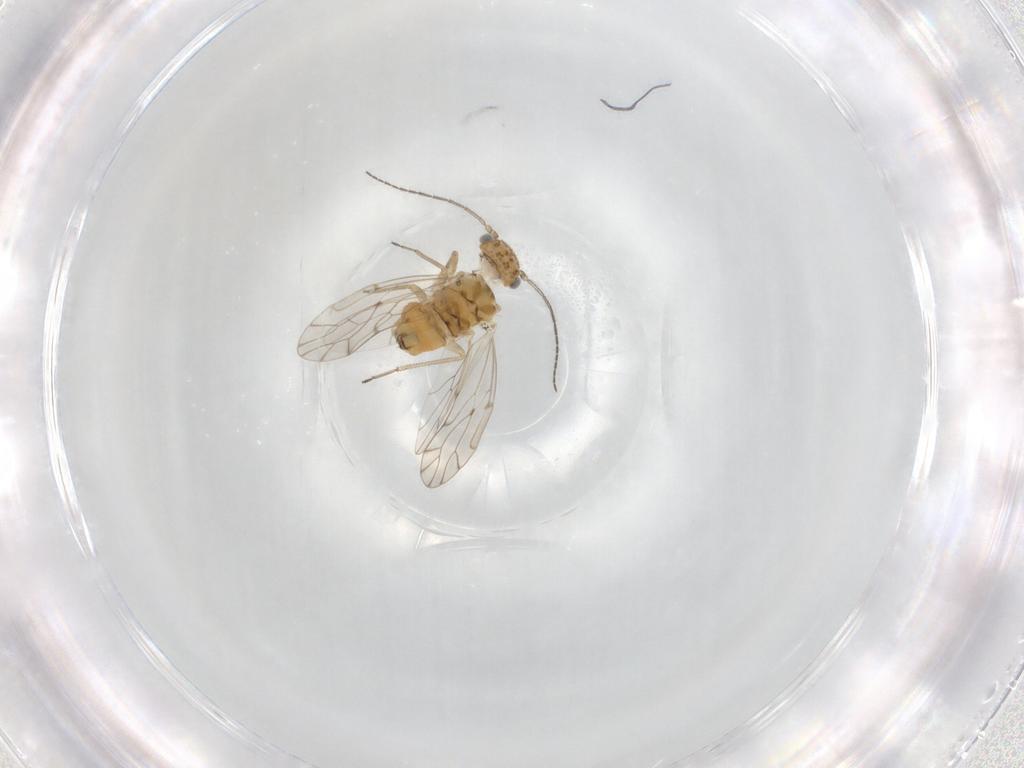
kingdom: Animalia
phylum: Arthropoda
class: Insecta
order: Psocodea
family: Ectopsocidae
